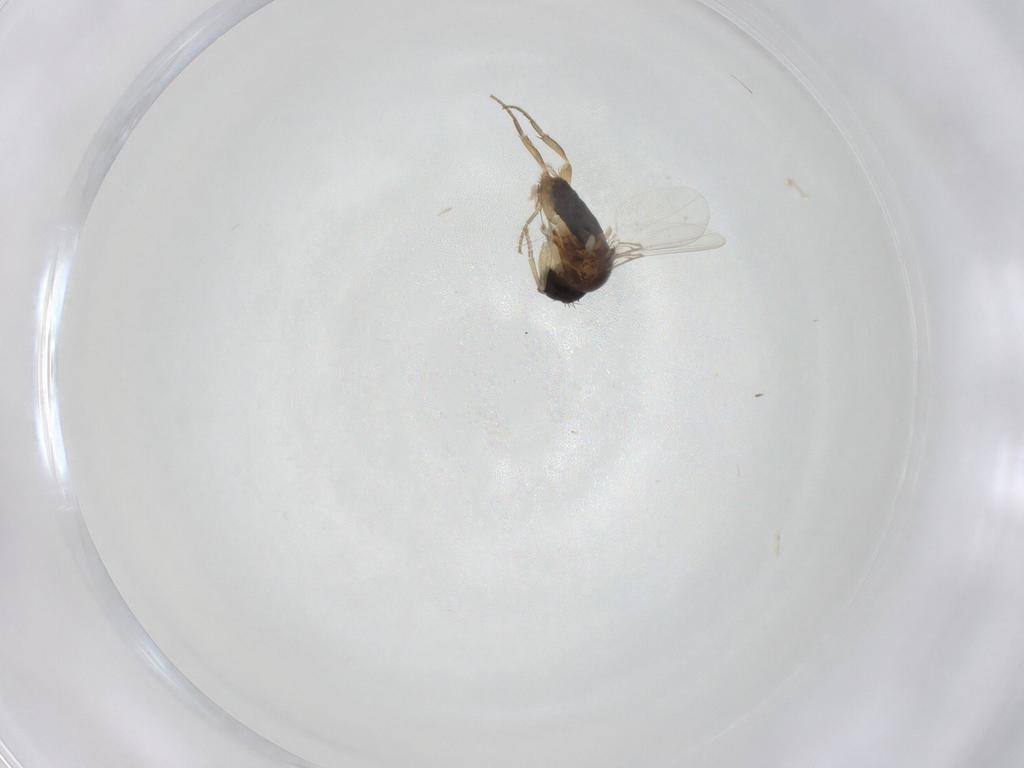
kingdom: Animalia
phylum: Arthropoda
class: Insecta
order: Diptera
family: Phoridae
